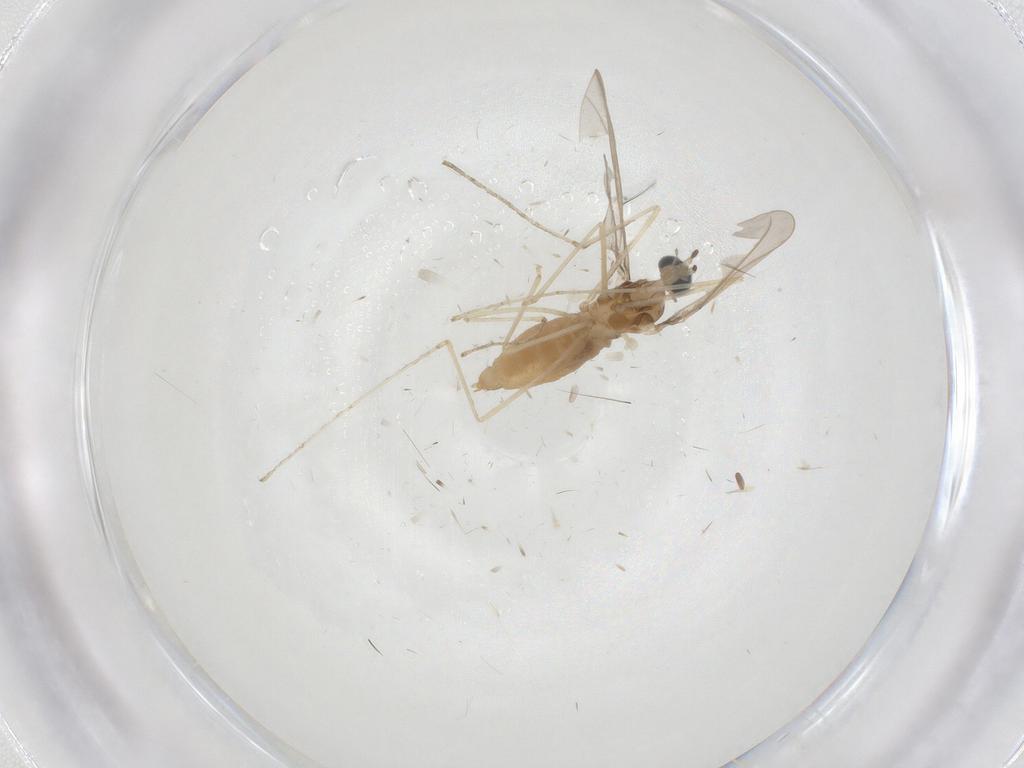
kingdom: Animalia
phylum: Arthropoda
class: Insecta
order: Diptera
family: Cecidomyiidae
